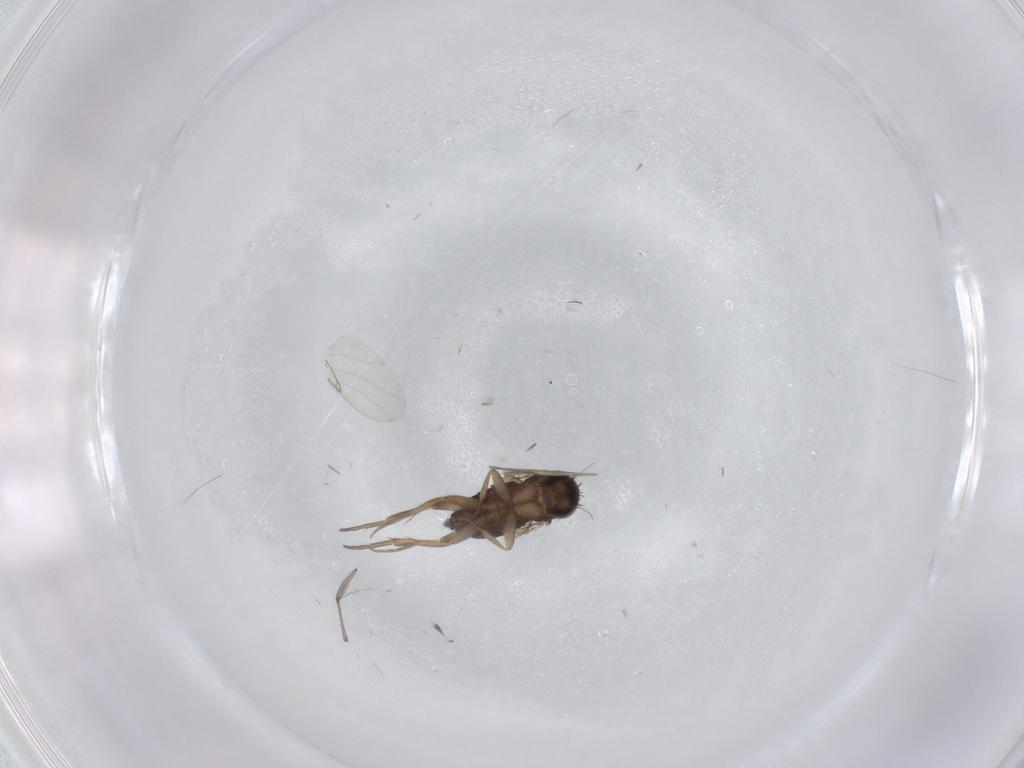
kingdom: Animalia
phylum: Arthropoda
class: Insecta
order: Diptera
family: Phoridae
